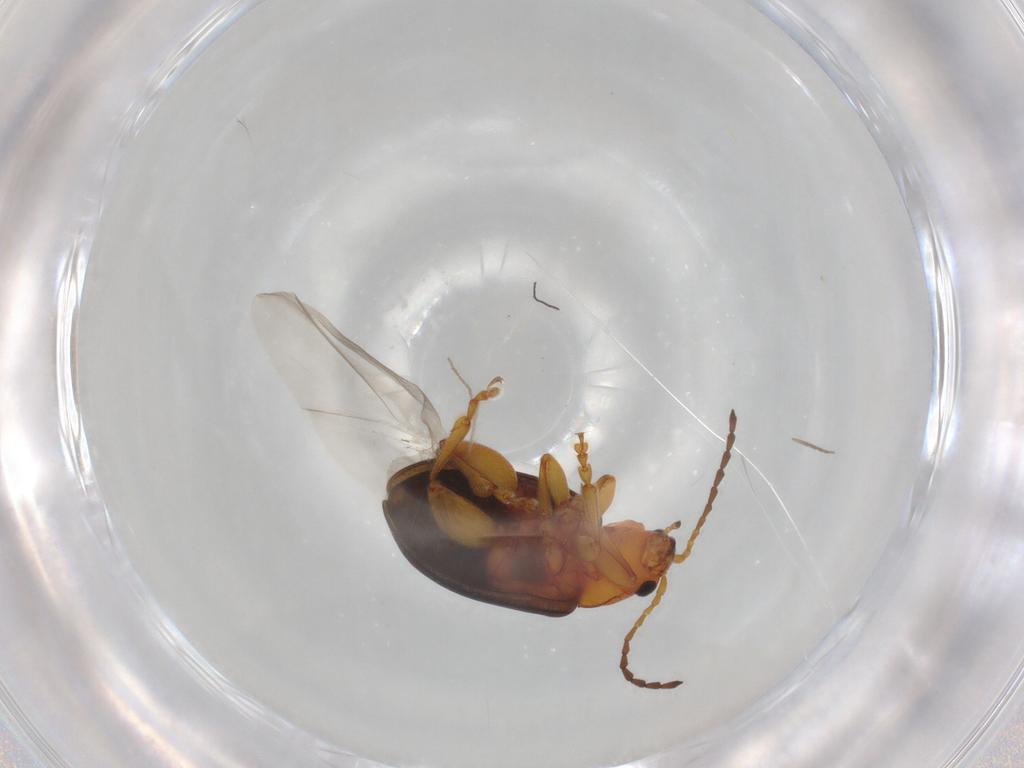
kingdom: Animalia
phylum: Arthropoda
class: Insecta
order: Coleoptera
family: Chrysomelidae
